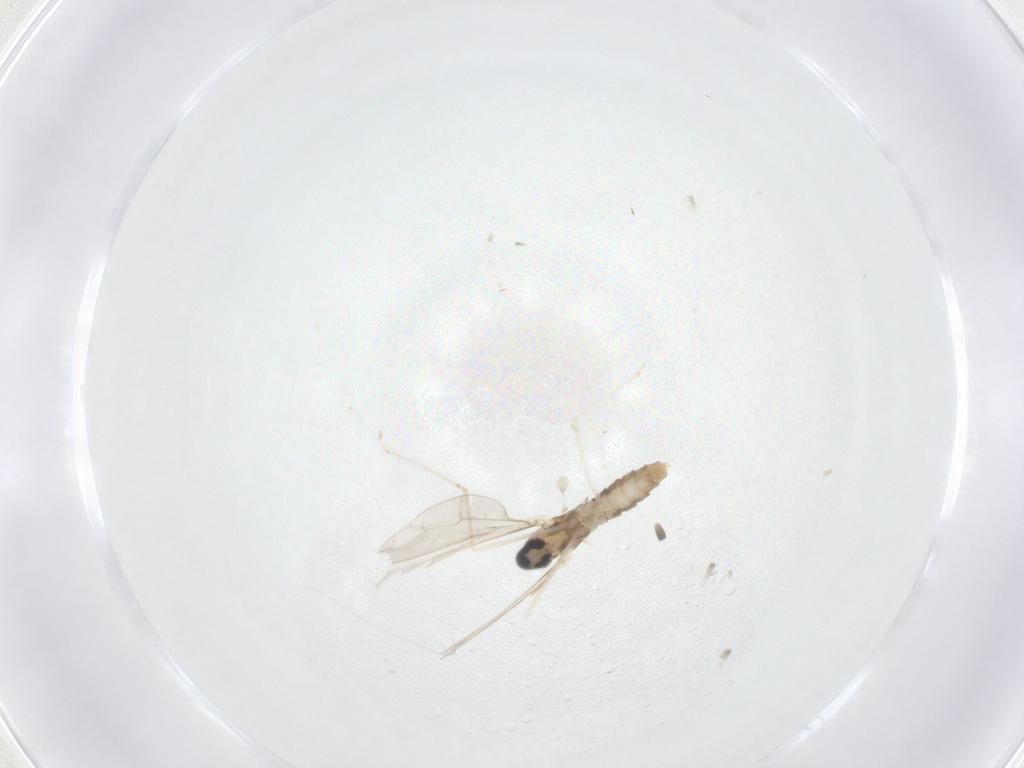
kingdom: Animalia
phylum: Arthropoda
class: Insecta
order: Diptera
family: Cecidomyiidae
